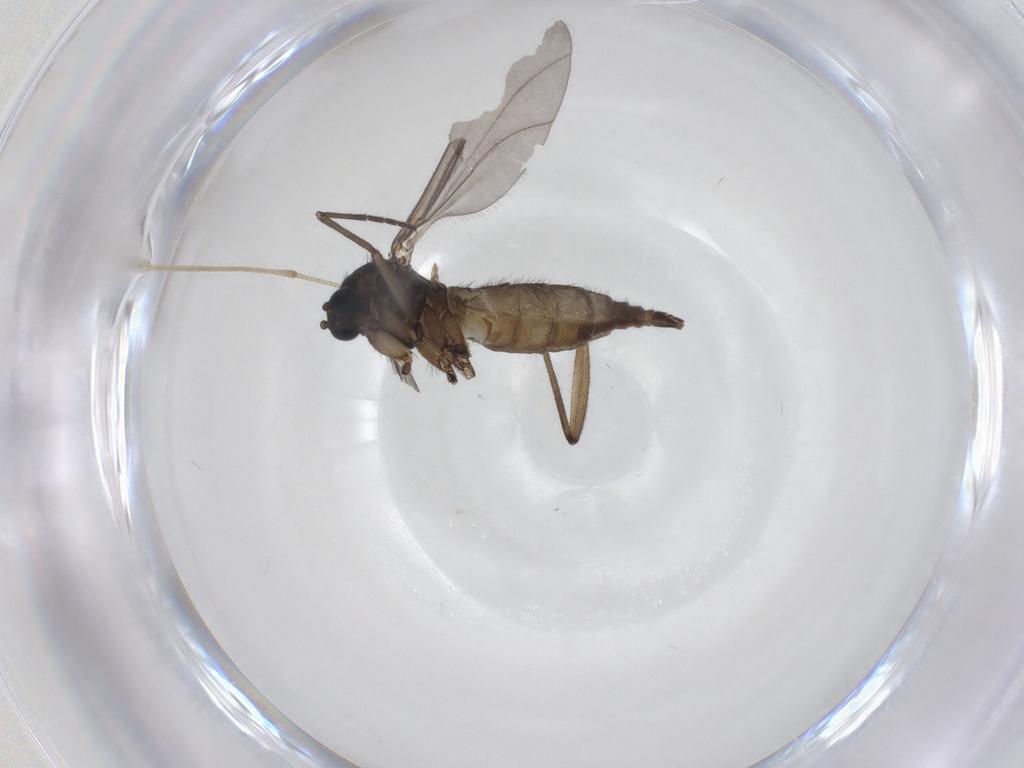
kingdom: Animalia
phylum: Arthropoda
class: Insecta
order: Diptera
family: Sciaridae
